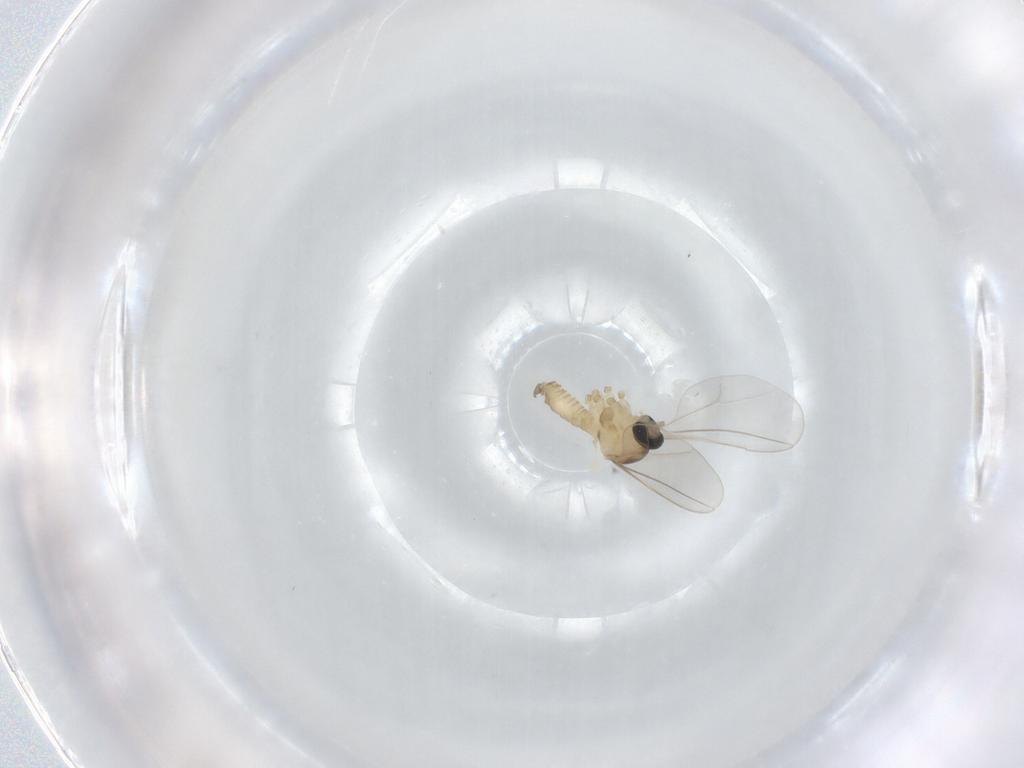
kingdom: Animalia
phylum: Arthropoda
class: Insecta
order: Diptera
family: Cecidomyiidae
